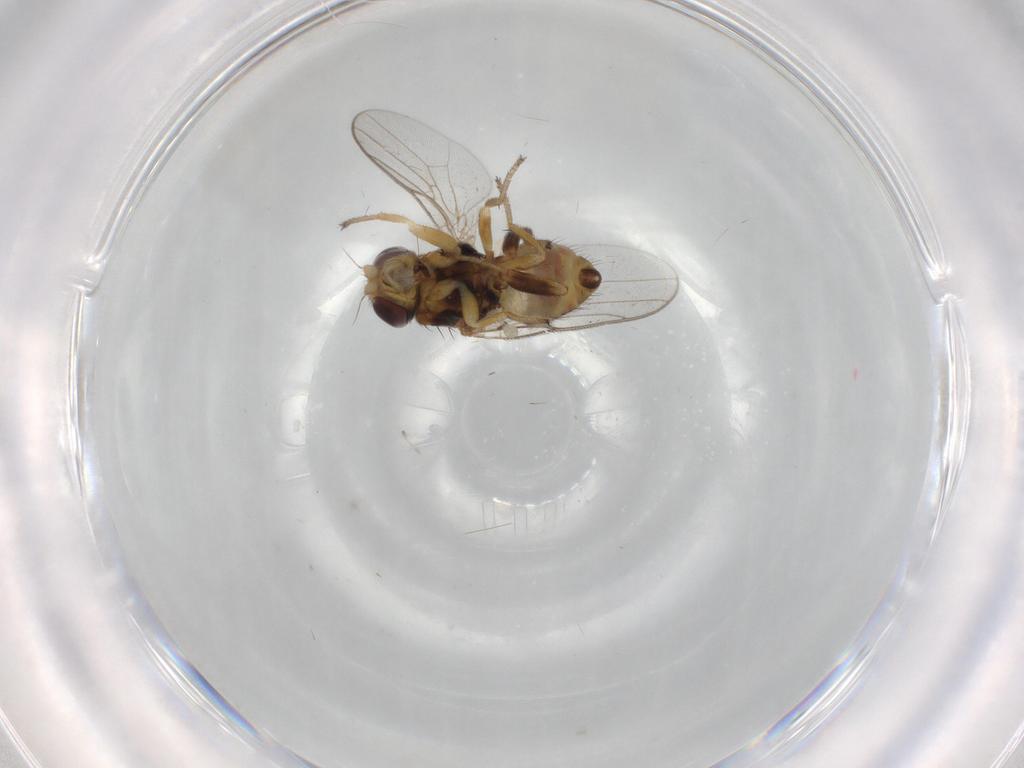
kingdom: Animalia
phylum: Arthropoda
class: Insecta
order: Diptera
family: Chloropidae
